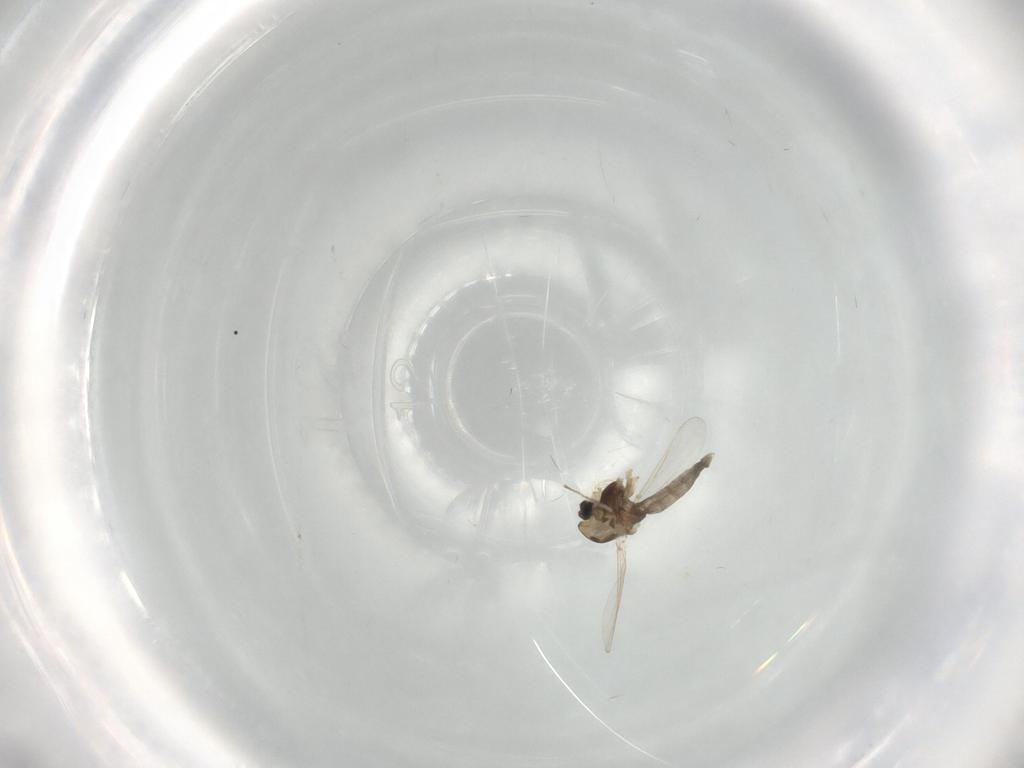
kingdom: Animalia
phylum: Arthropoda
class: Insecta
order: Diptera
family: Chironomidae
